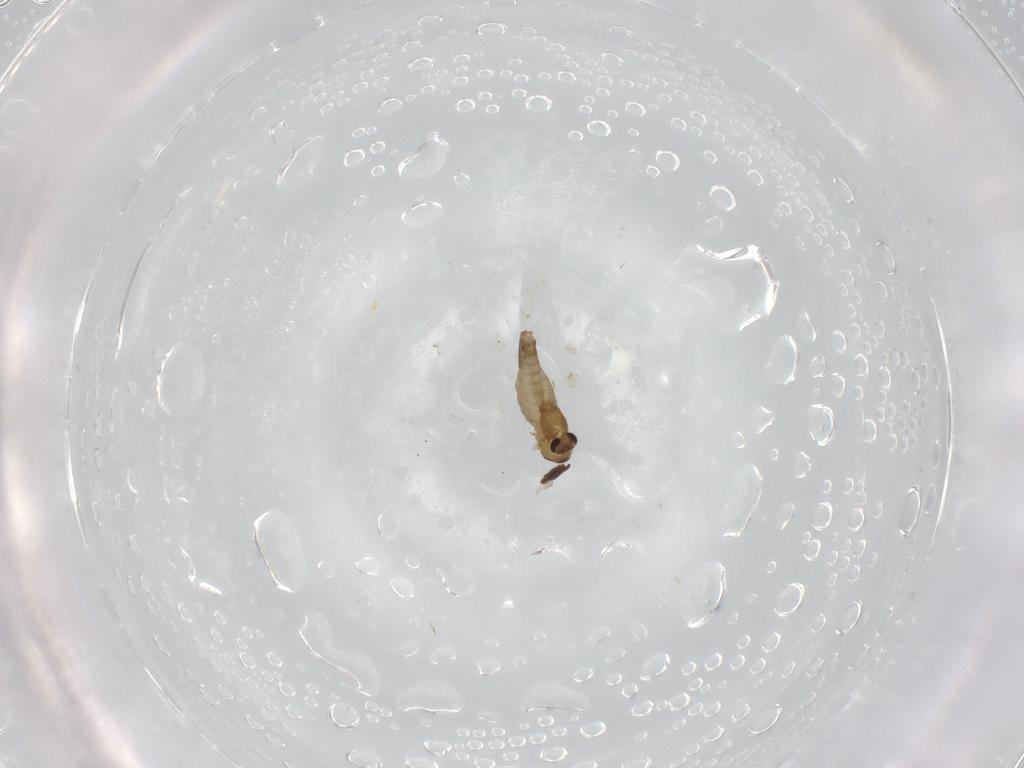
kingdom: Animalia
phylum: Arthropoda
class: Insecta
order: Diptera
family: Chironomidae
